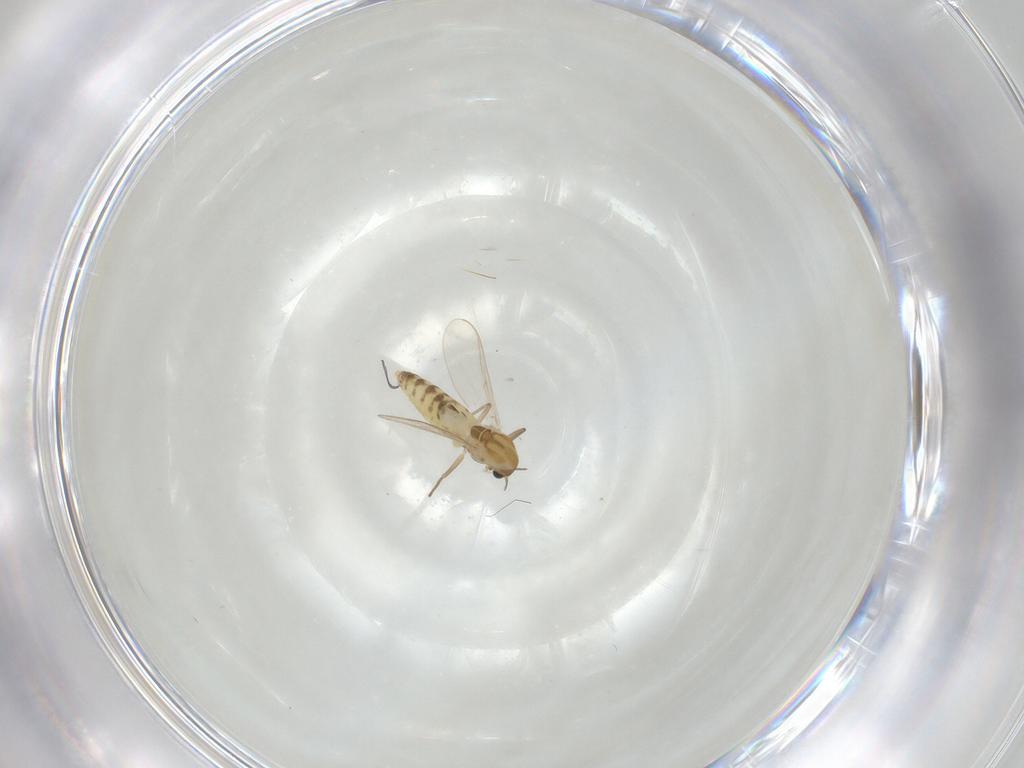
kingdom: Animalia
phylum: Arthropoda
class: Insecta
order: Diptera
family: Chironomidae
